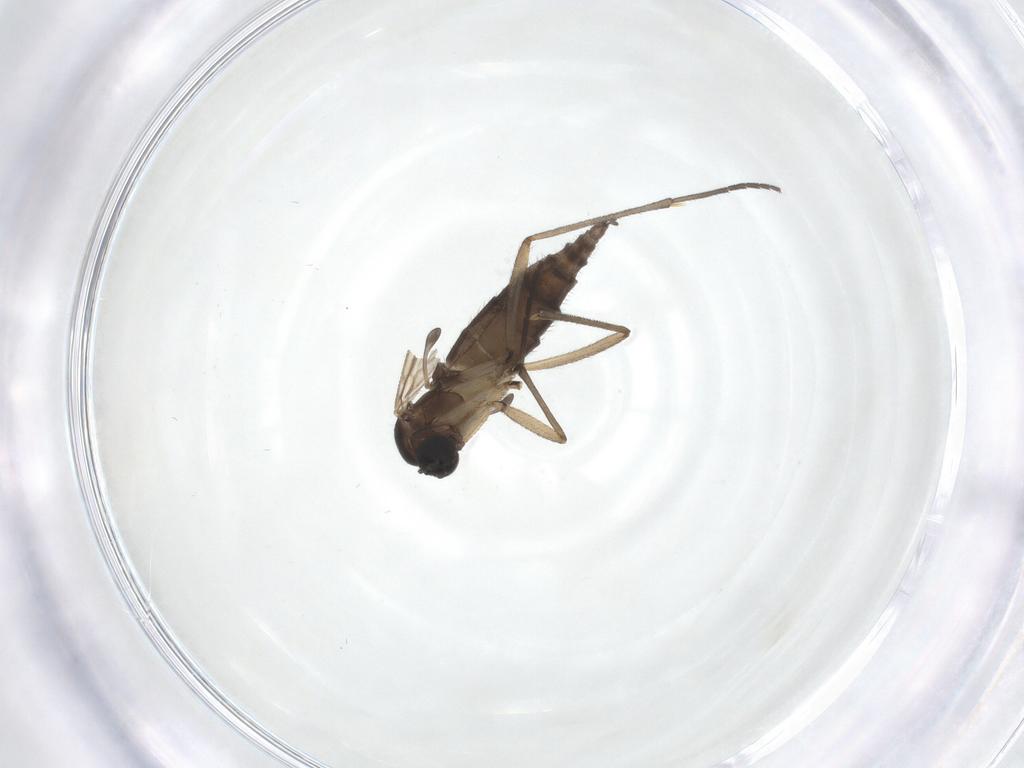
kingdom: Animalia
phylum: Arthropoda
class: Insecta
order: Diptera
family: Sciaridae
